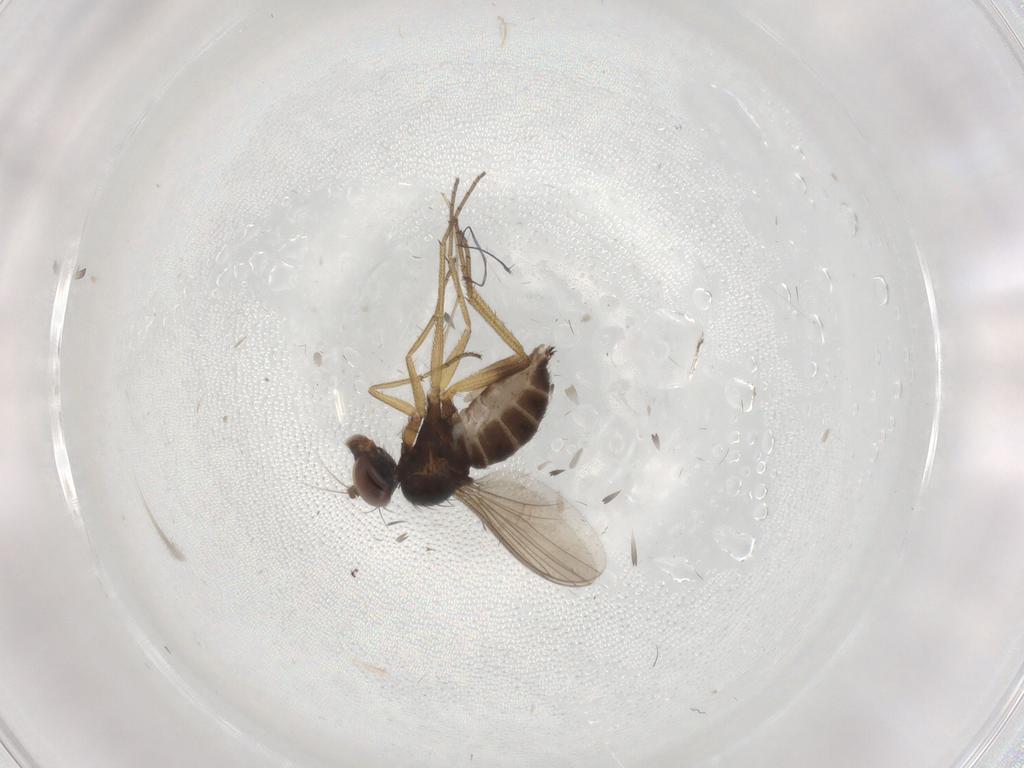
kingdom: Animalia
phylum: Arthropoda
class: Insecta
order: Diptera
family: Dolichopodidae
